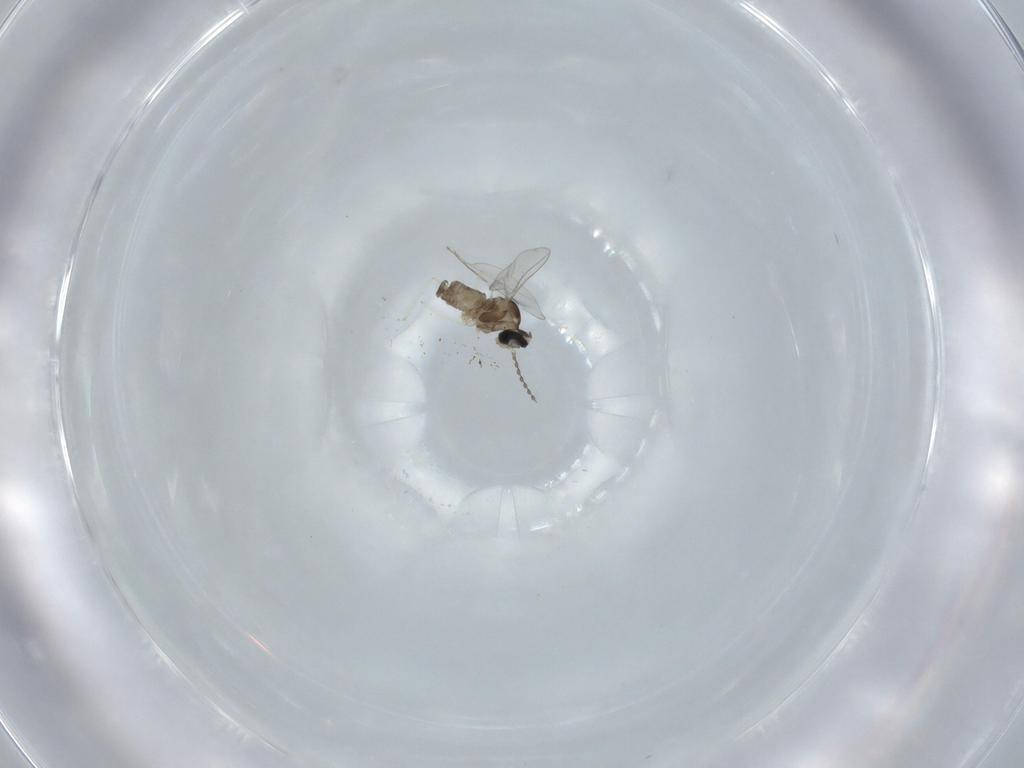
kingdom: Animalia
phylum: Arthropoda
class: Insecta
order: Diptera
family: Cecidomyiidae
